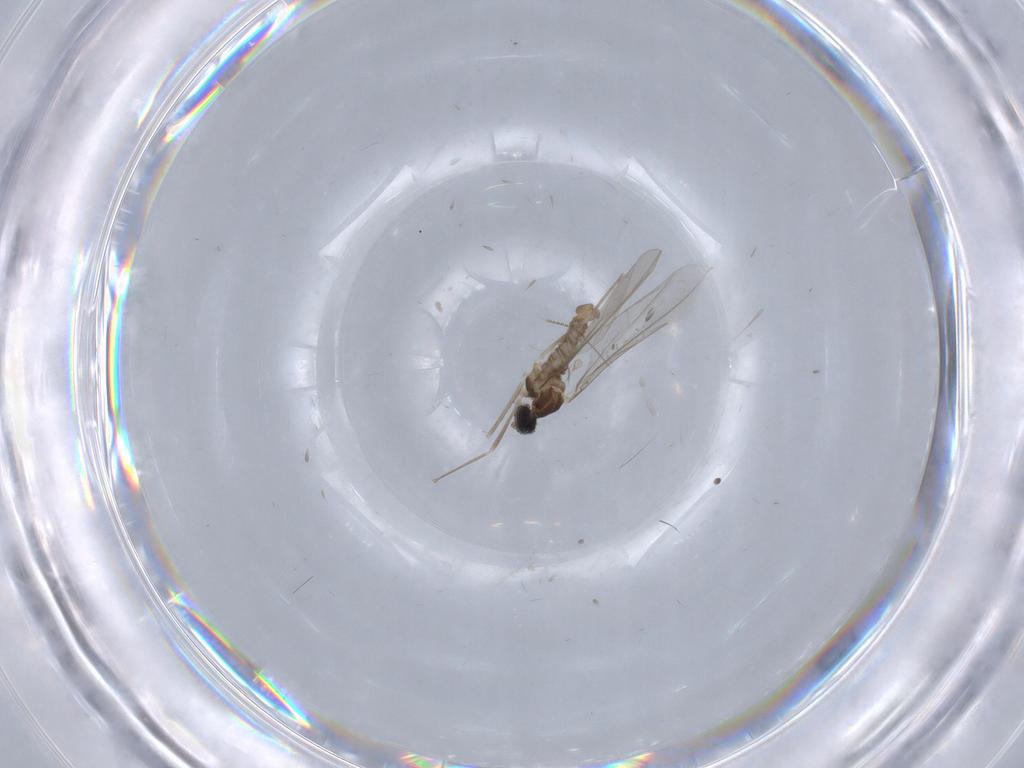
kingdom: Animalia
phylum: Arthropoda
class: Insecta
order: Diptera
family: Cecidomyiidae
